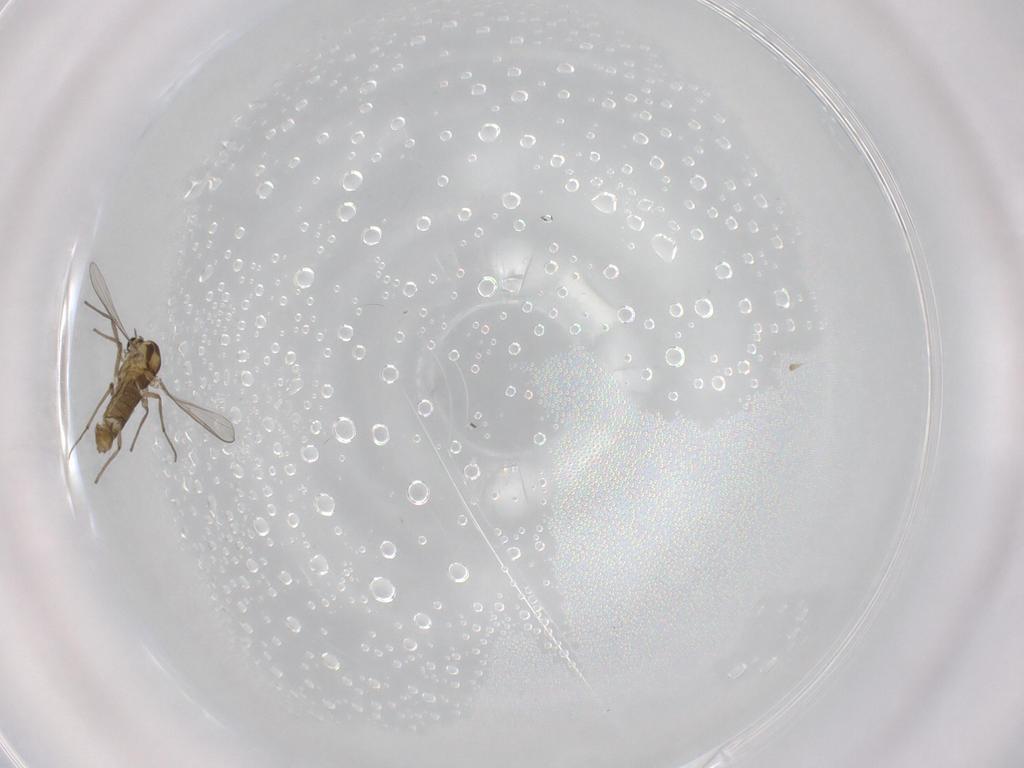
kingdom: Animalia
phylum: Arthropoda
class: Insecta
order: Diptera
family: Chironomidae
